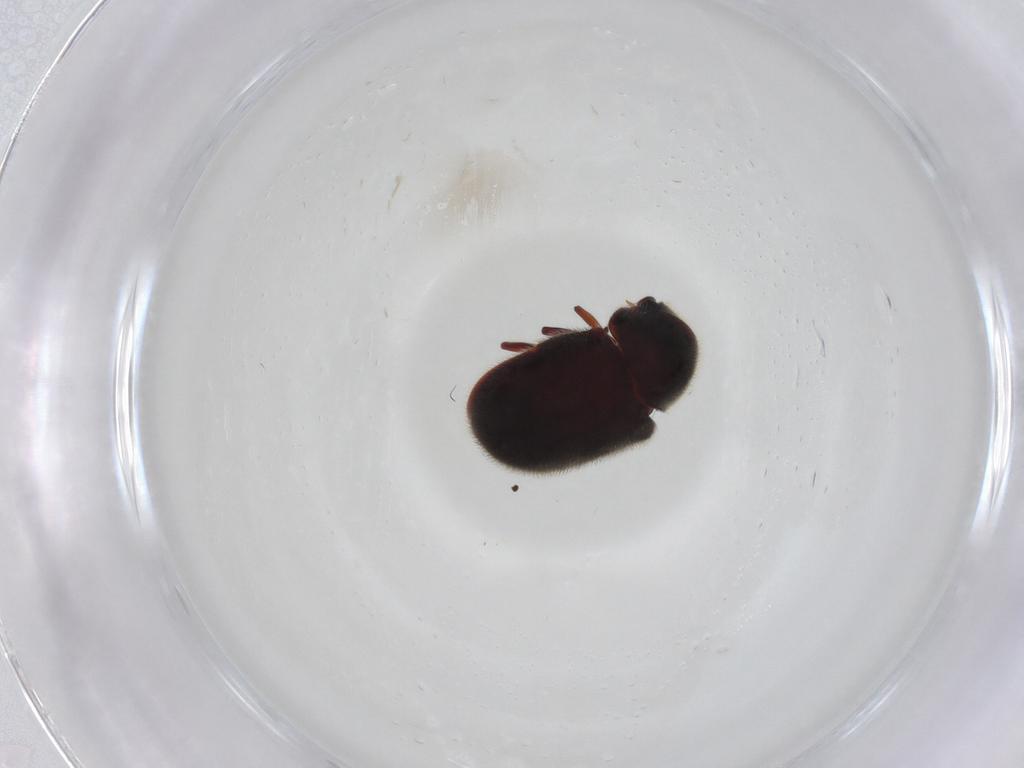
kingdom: Animalia
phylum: Arthropoda
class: Insecta
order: Coleoptera
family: Ptinidae
